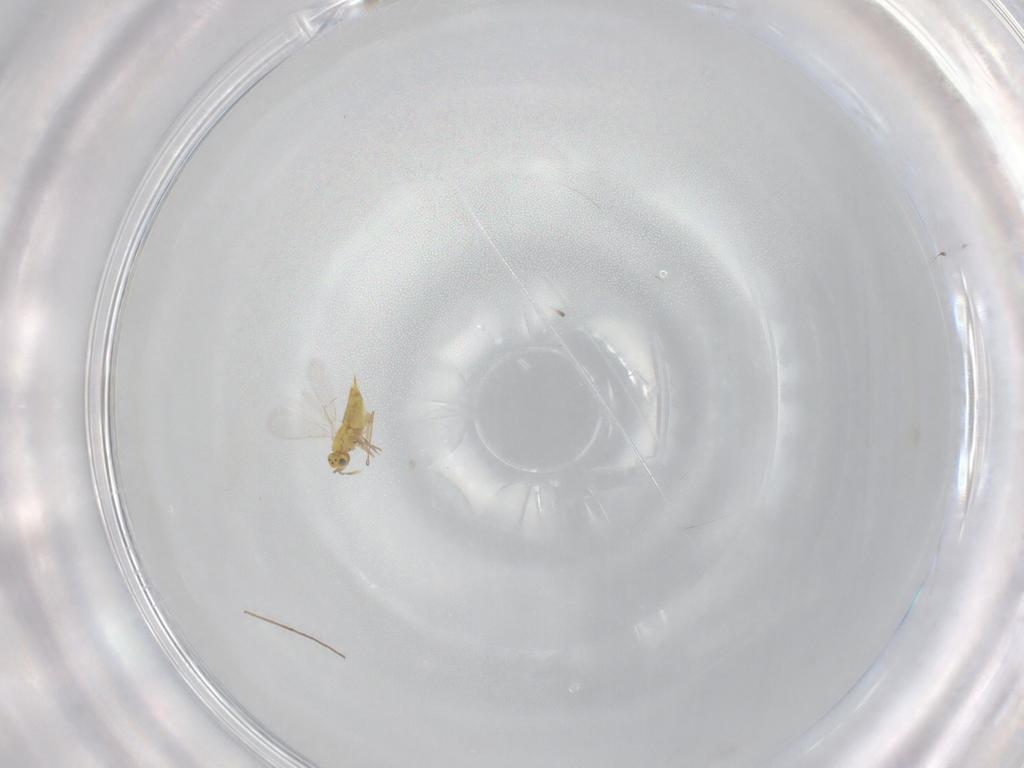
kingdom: Animalia
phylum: Arthropoda
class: Insecta
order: Hymenoptera
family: Aphelinidae
